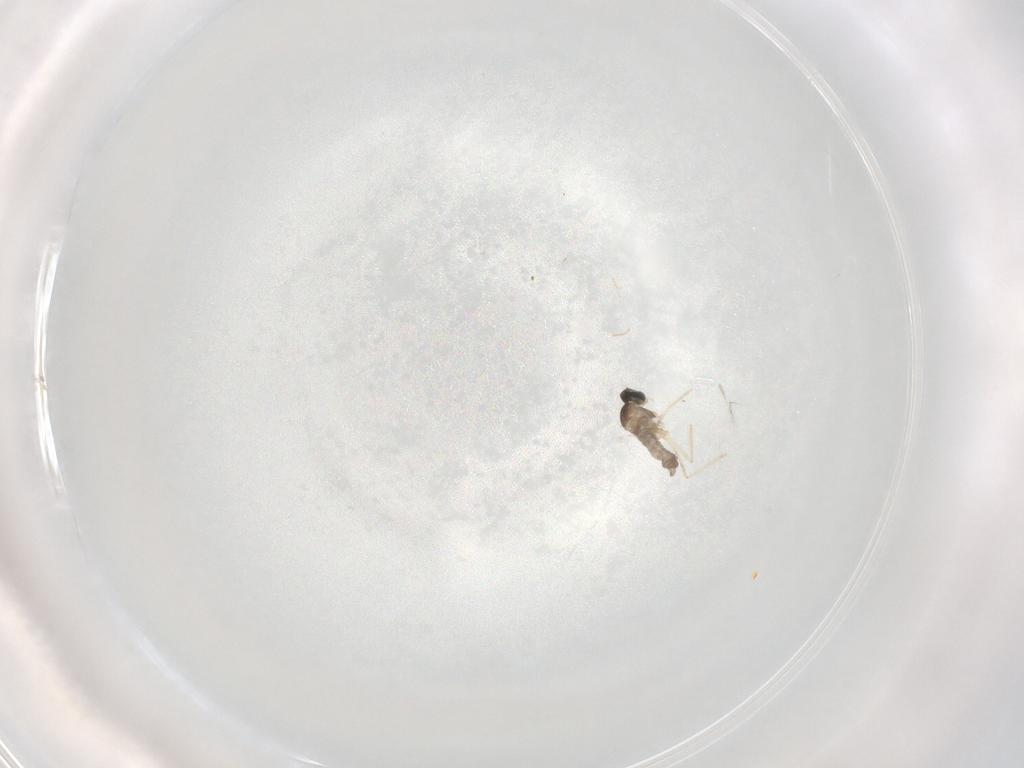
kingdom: Animalia
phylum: Arthropoda
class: Insecta
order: Diptera
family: Cecidomyiidae
